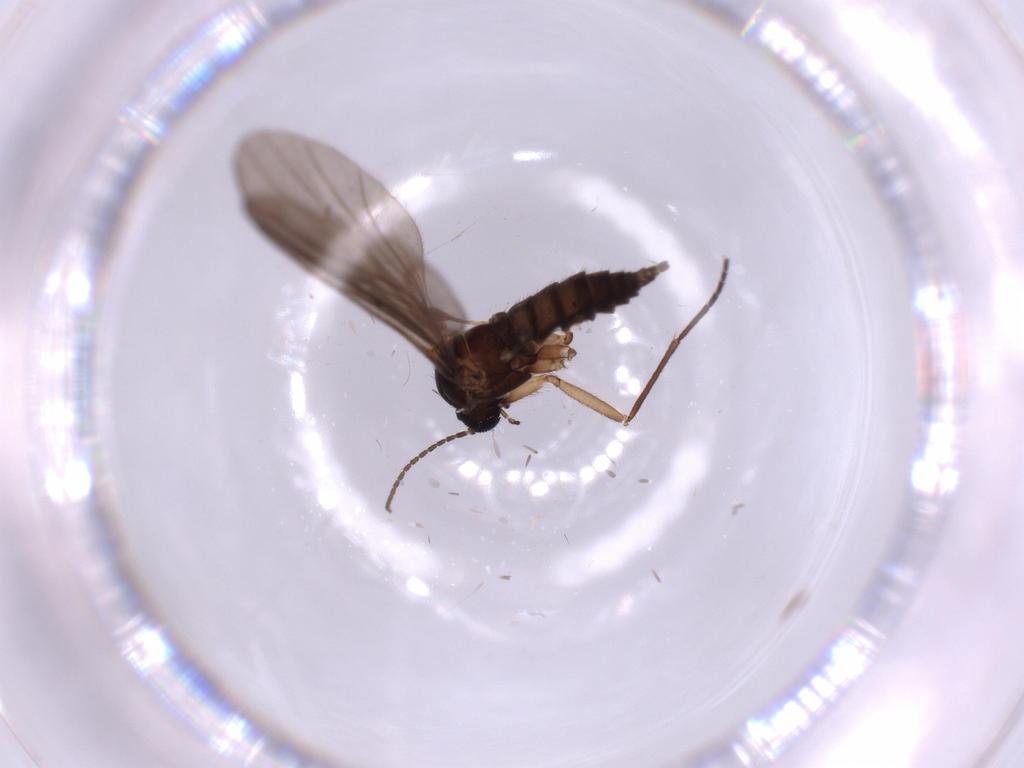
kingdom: Animalia
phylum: Arthropoda
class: Insecta
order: Diptera
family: Sciaridae
